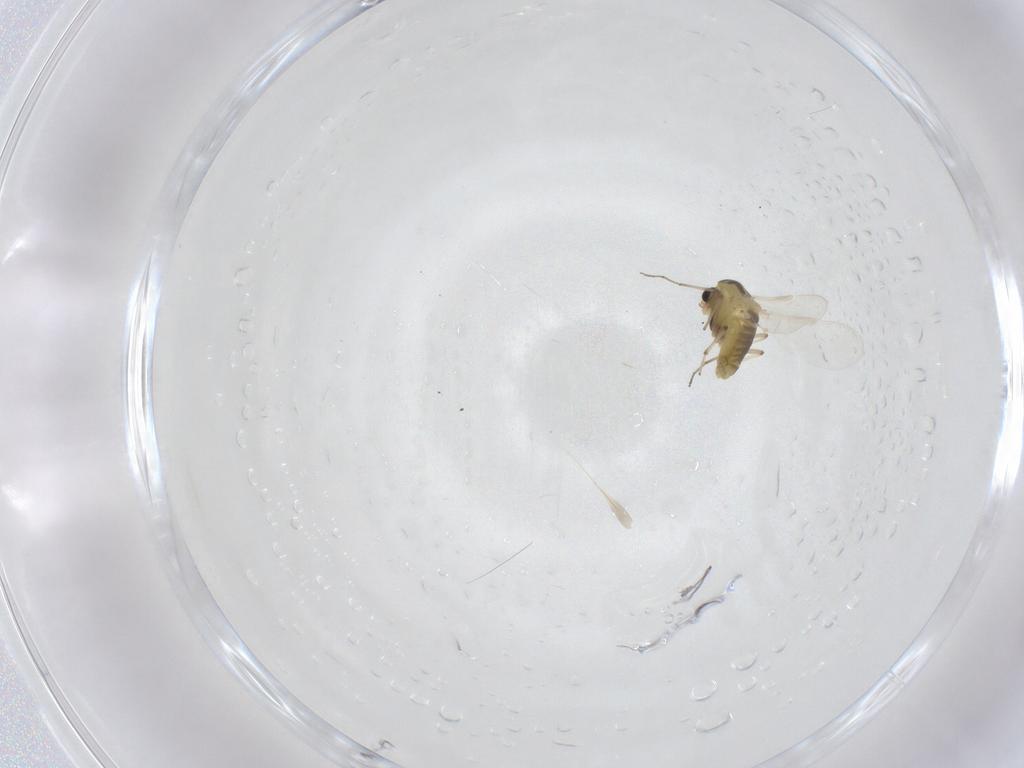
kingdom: Animalia
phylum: Arthropoda
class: Insecta
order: Diptera
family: Chironomidae
